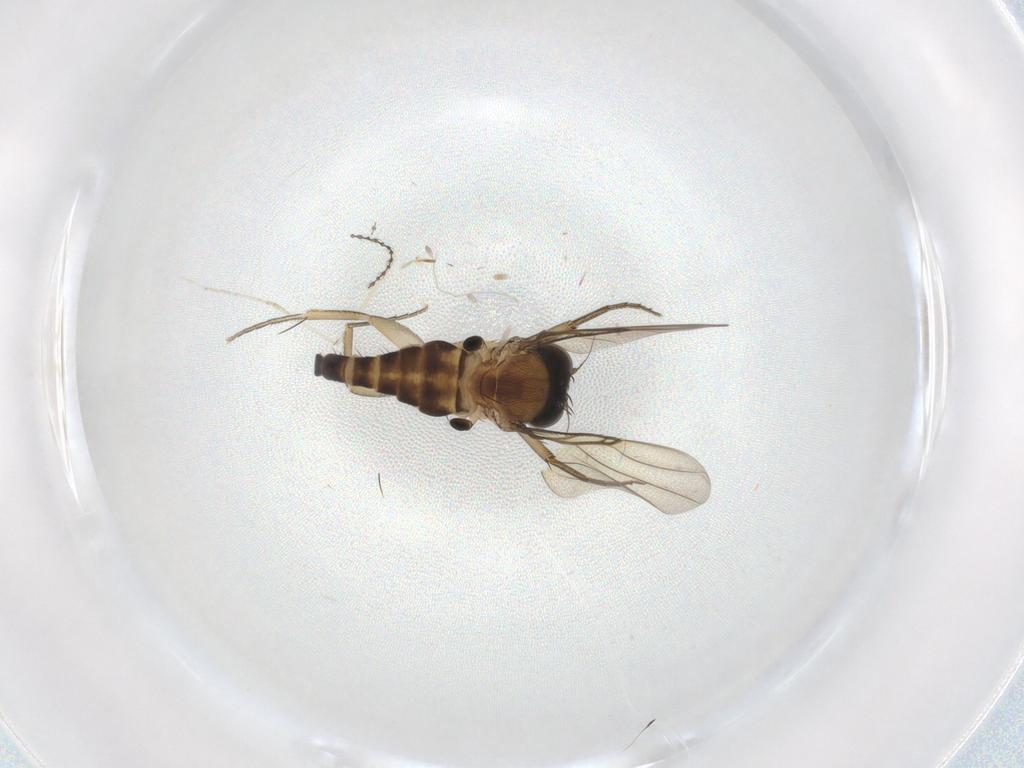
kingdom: Animalia
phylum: Arthropoda
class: Insecta
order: Diptera
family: Phoridae
